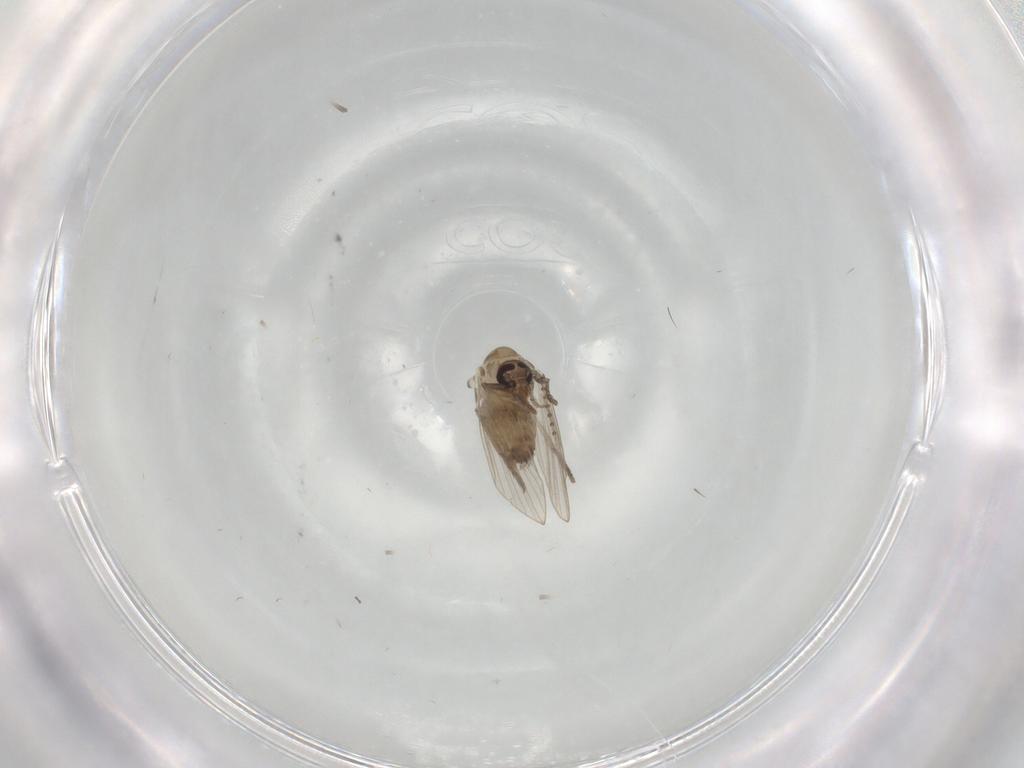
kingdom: Animalia
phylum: Arthropoda
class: Insecta
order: Diptera
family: Psychodidae
